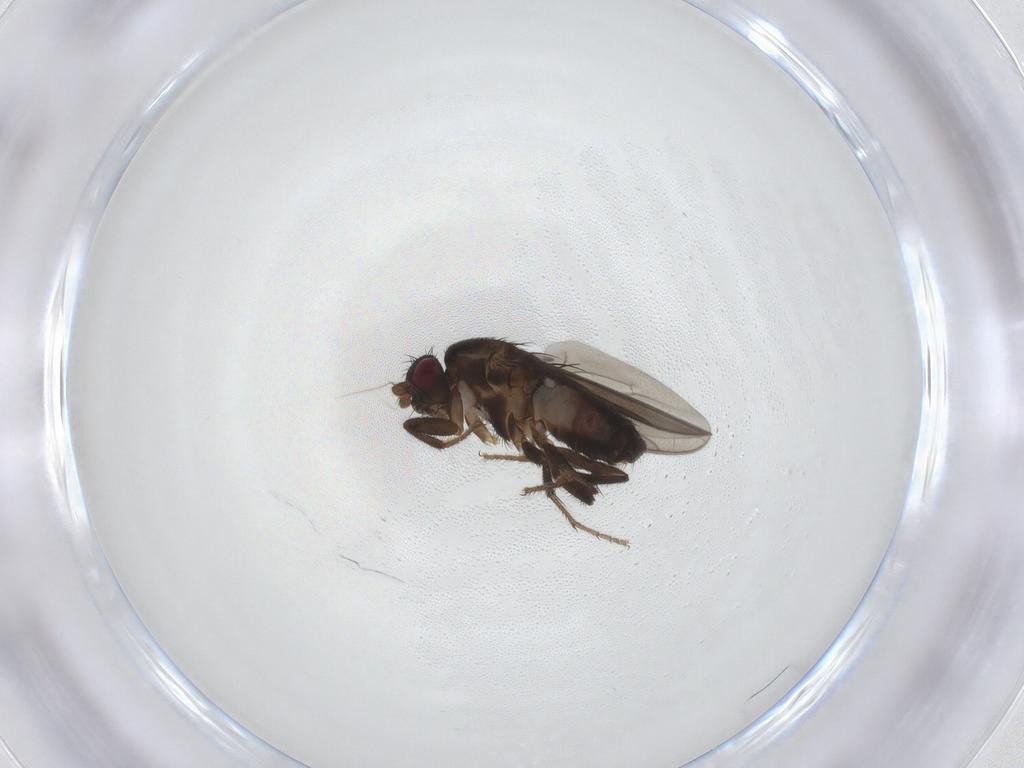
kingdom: Animalia
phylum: Arthropoda
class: Insecta
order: Diptera
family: Sphaeroceridae
